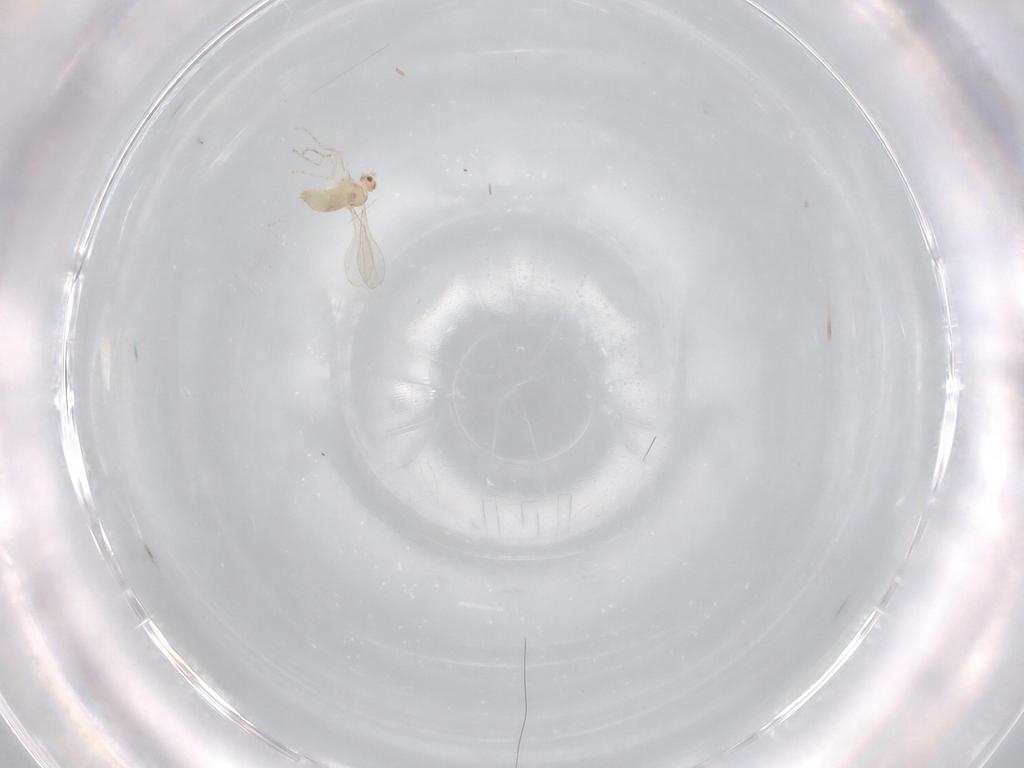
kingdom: Animalia
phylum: Arthropoda
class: Insecta
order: Diptera
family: Cecidomyiidae
